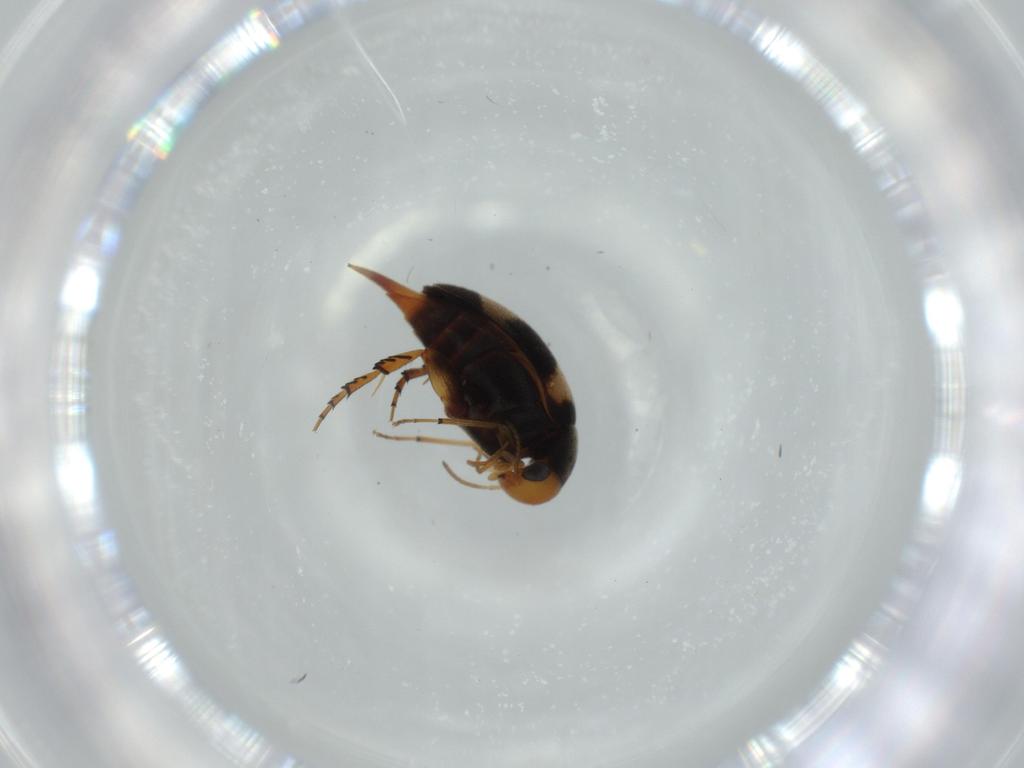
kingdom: Animalia
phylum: Arthropoda
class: Insecta
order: Coleoptera
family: Mordellidae
